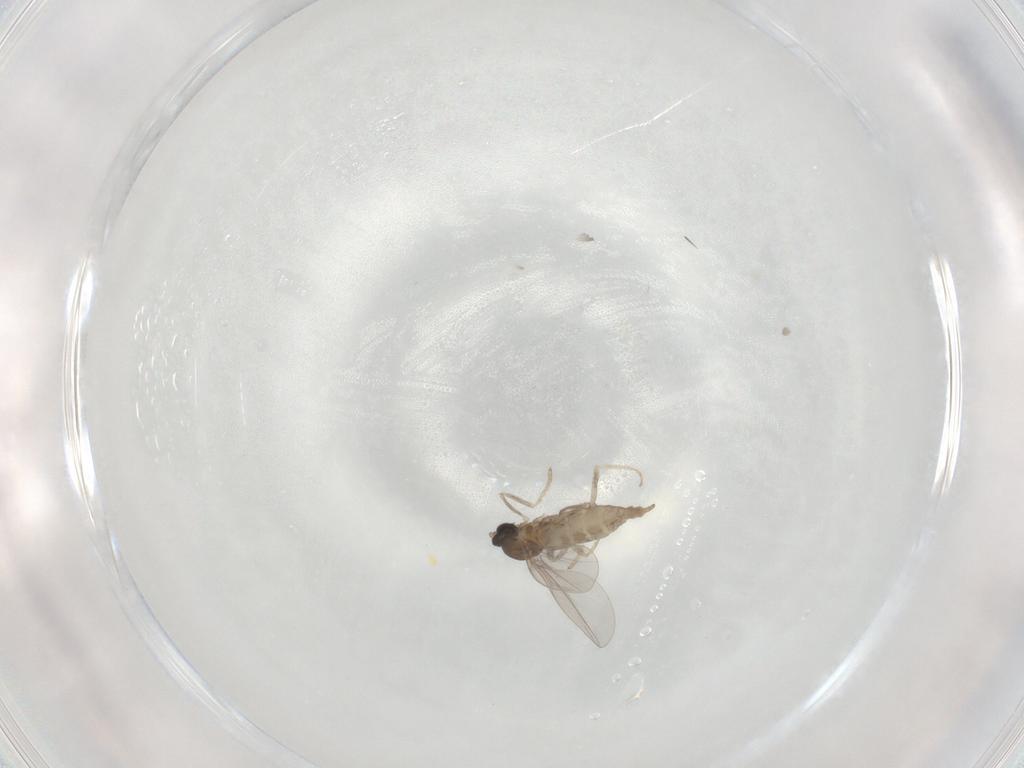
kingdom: Animalia
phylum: Arthropoda
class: Insecta
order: Diptera
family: Cecidomyiidae
